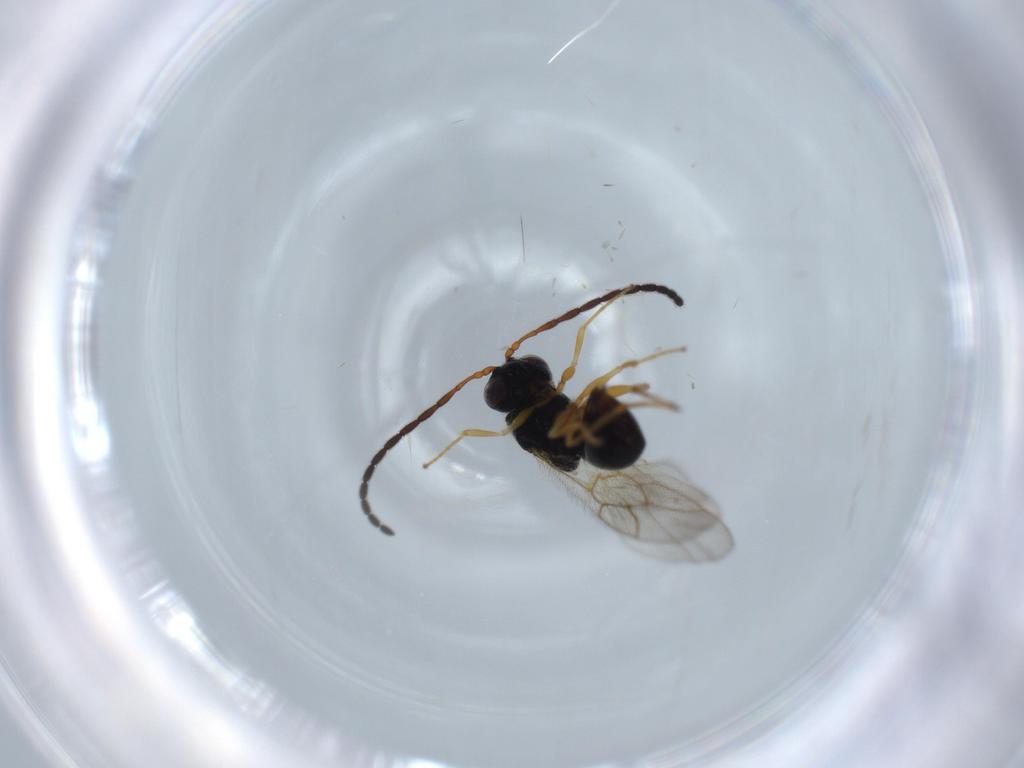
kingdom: Animalia
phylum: Arthropoda
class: Insecta
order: Hymenoptera
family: Figitidae
